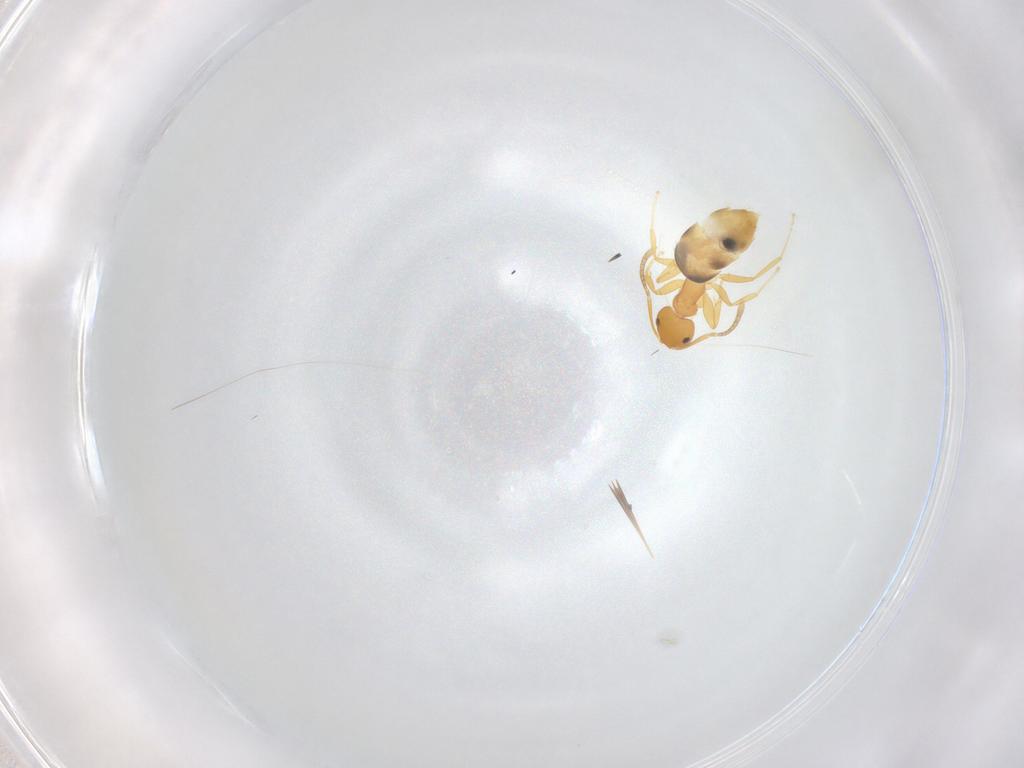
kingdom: Animalia
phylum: Arthropoda
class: Insecta
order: Hymenoptera
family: Formicidae
